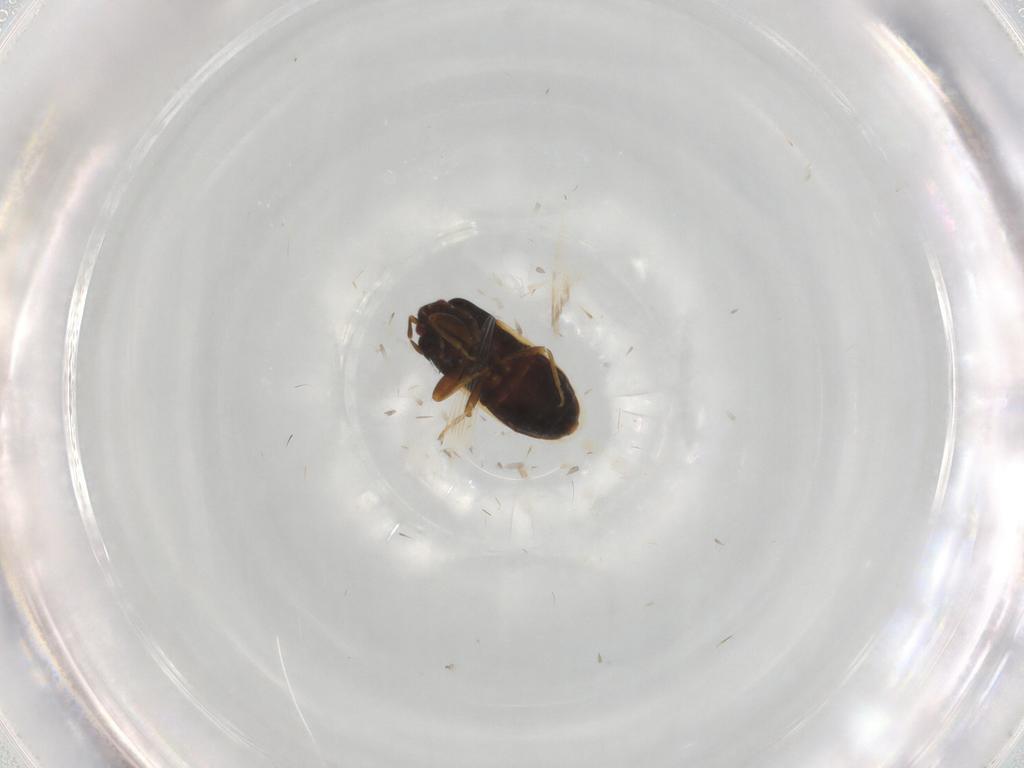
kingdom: Animalia
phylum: Arthropoda
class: Insecta
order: Hemiptera
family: Rhyparochromidae
